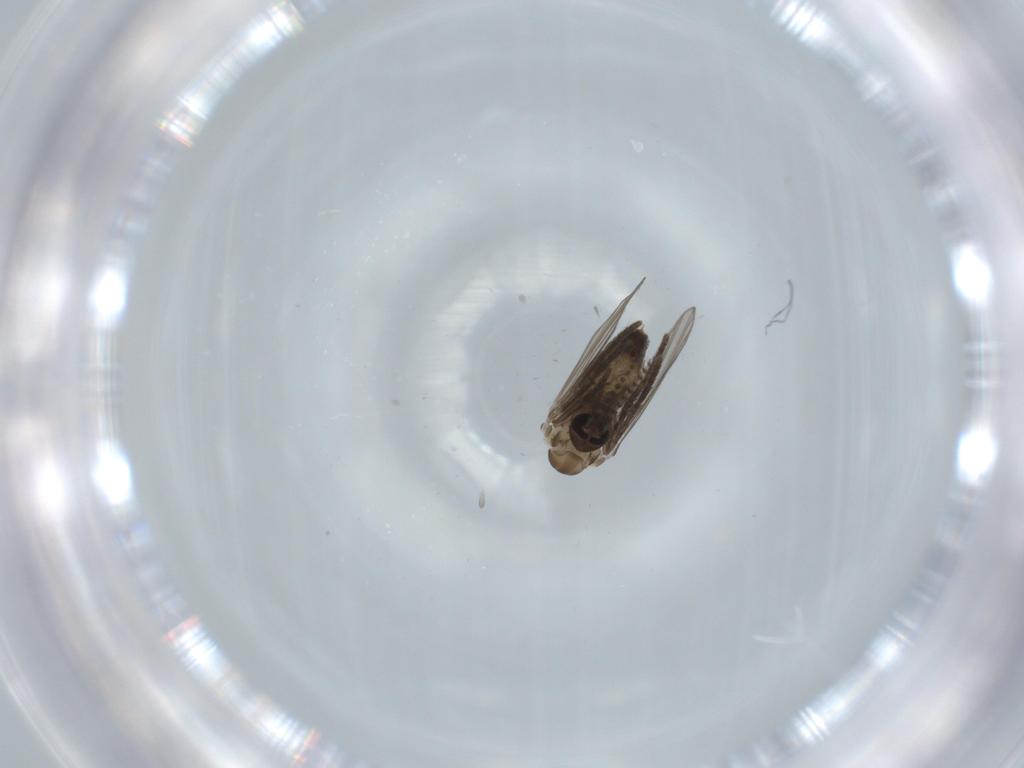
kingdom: Animalia
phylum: Arthropoda
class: Insecta
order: Diptera
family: Psychodidae
